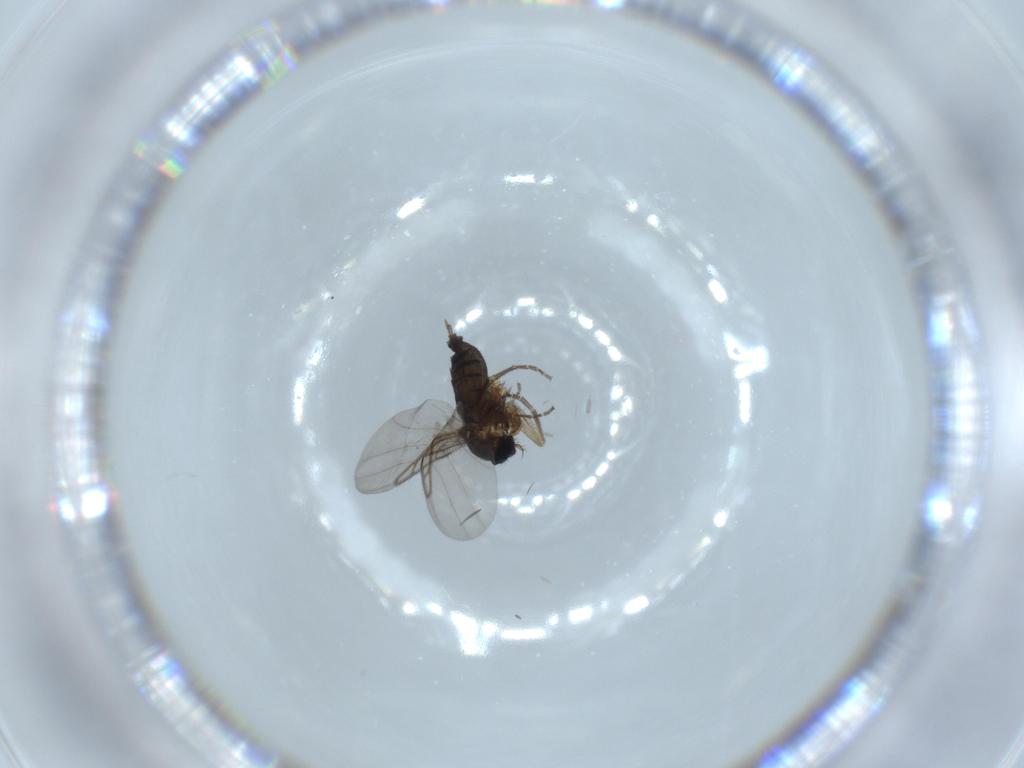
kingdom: Animalia
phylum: Arthropoda
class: Insecta
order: Diptera
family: Phoridae
